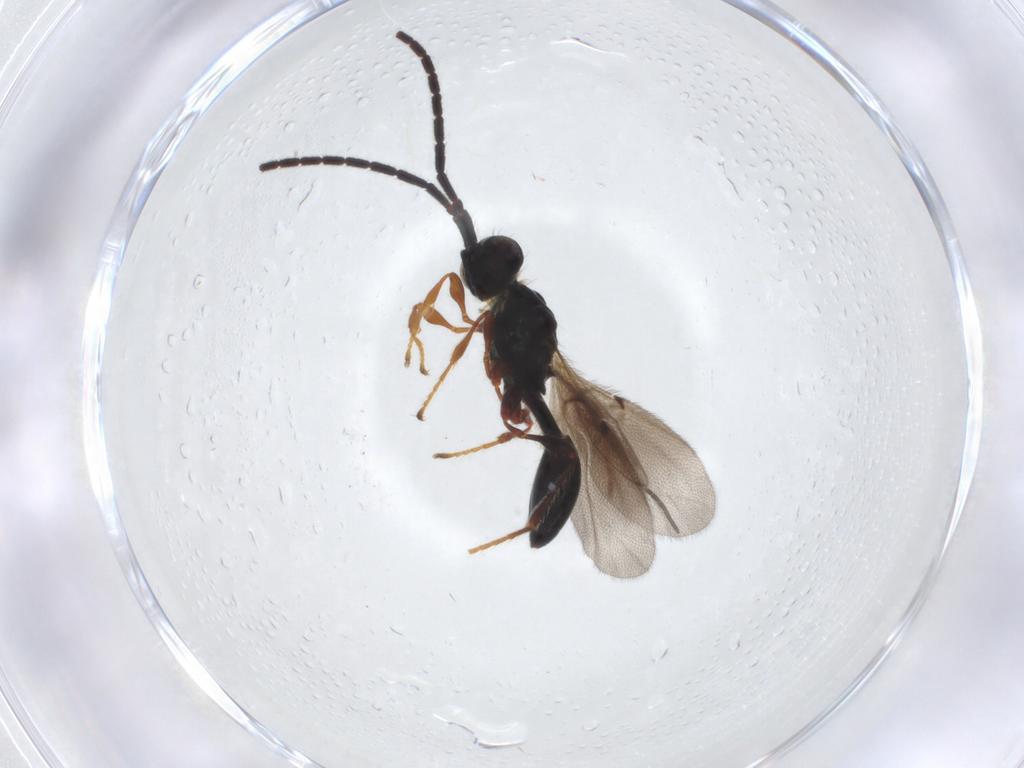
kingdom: Animalia
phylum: Arthropoda
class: Insecta
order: Hymenoptera
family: Diapriidae
